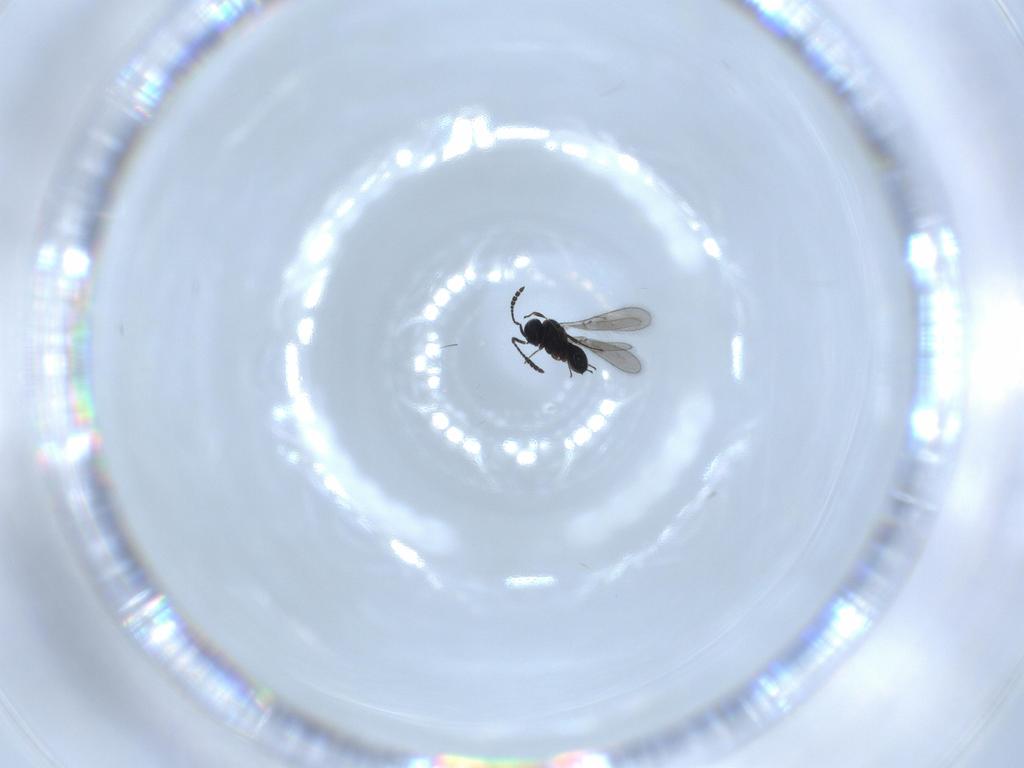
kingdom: Animalia
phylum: Arthropoda
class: Insecta
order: Hymenoptera
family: Scelionidae
